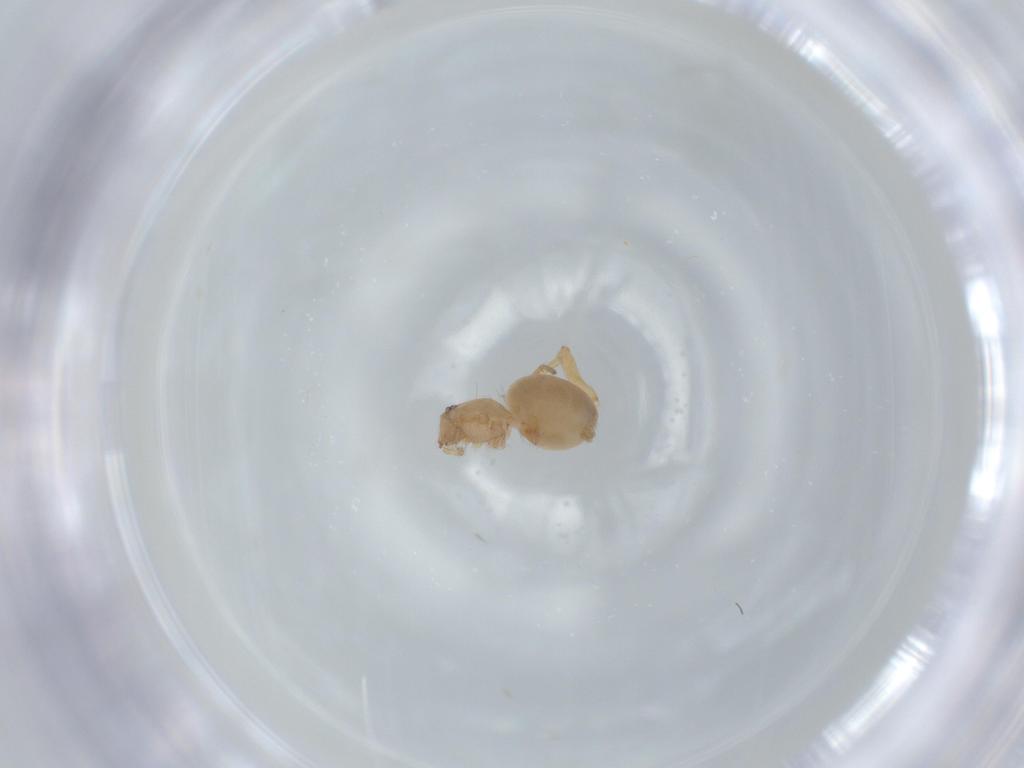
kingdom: Animalia
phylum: Arthropoda
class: Arachnida
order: Araneae
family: Oonopidae
